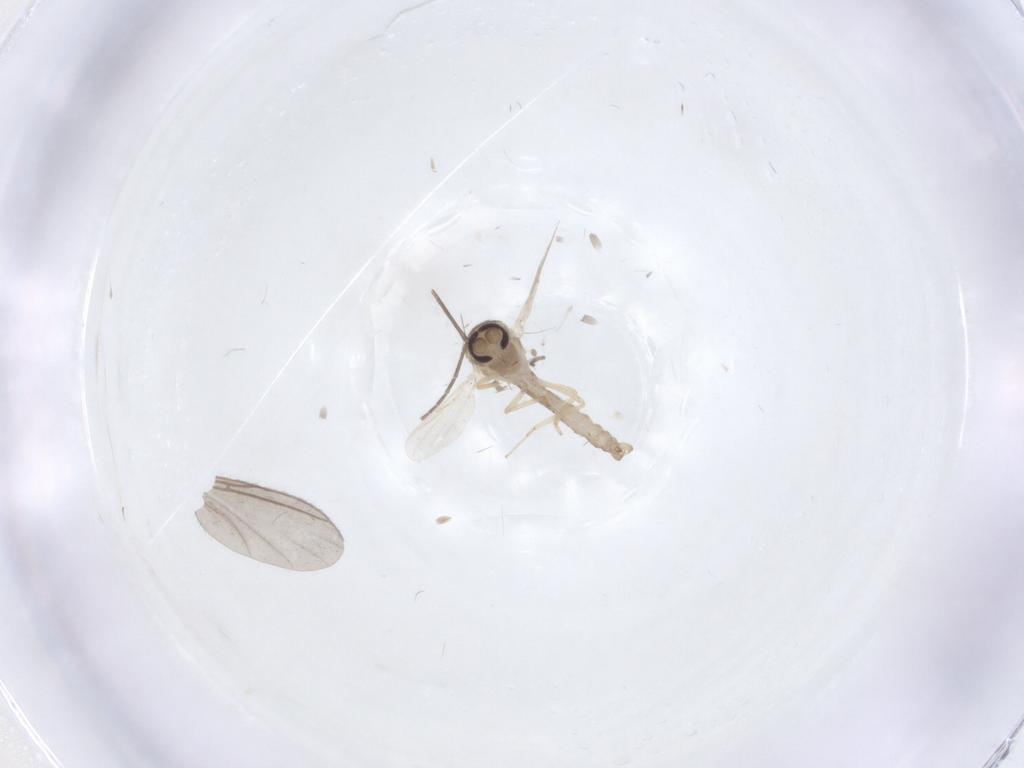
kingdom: Animalia
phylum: Arthropoda
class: Insecta
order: Diptera
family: Ceratopogonidae
